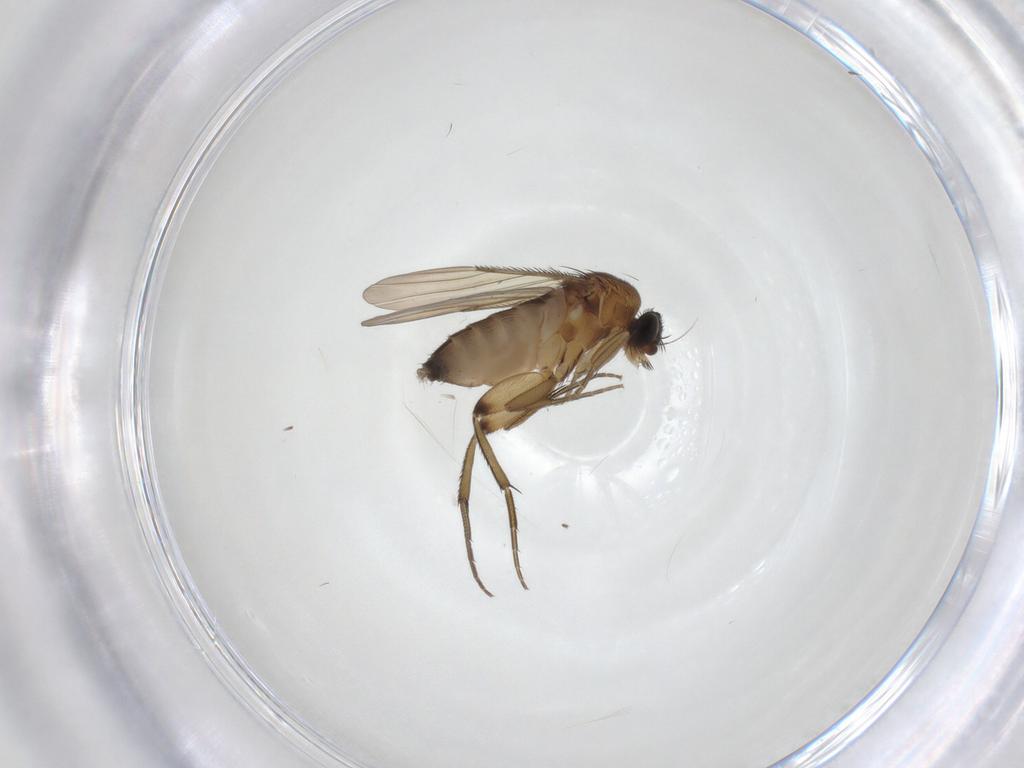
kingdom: Animalia
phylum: Arthropoda
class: Insecta
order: Diptera
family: Phoridae
